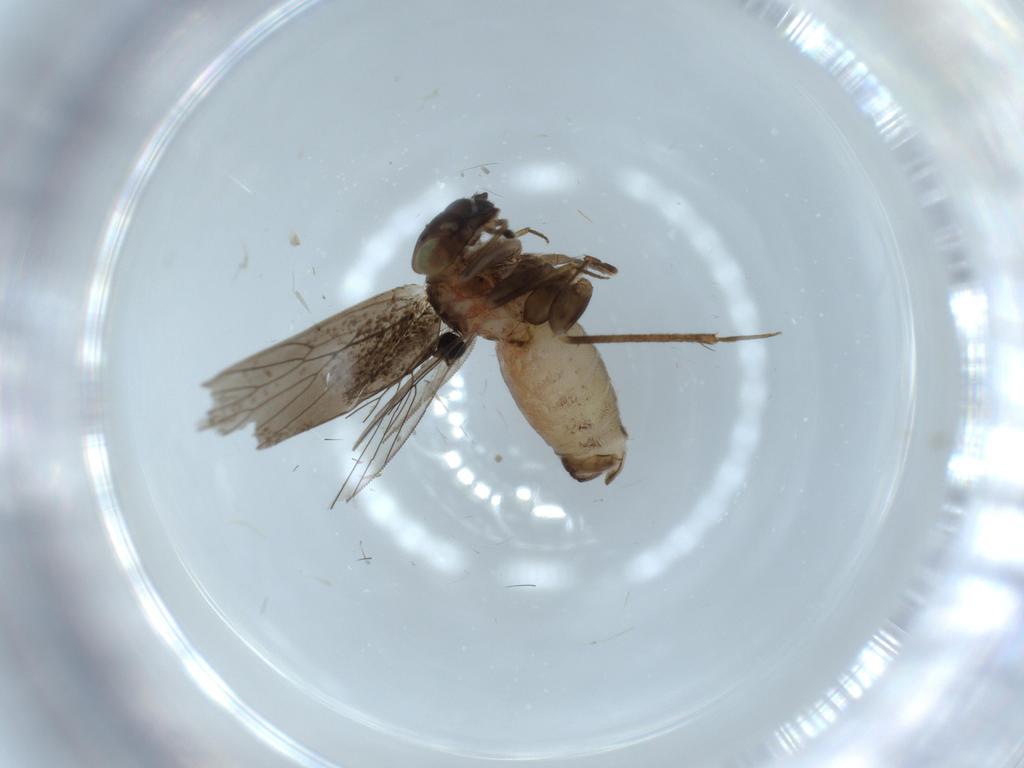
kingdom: Animalia
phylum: Arthropoda
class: Insecta
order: Psocodea
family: Lepidopsocidae
